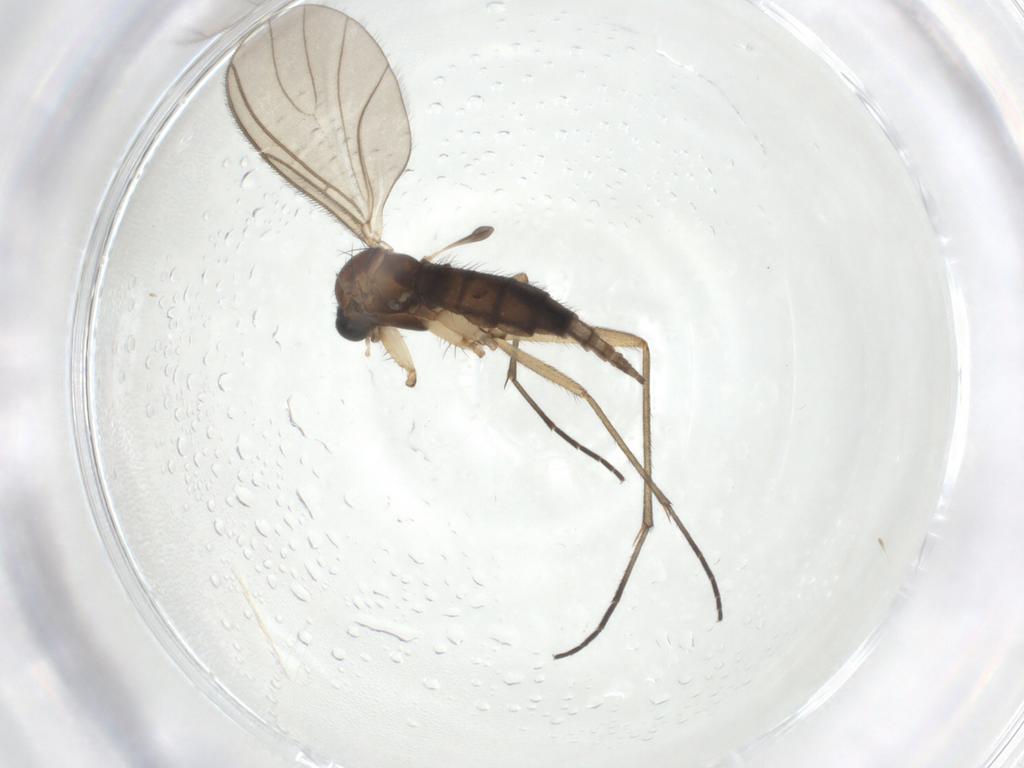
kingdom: Animalia
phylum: Arthropoda
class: Insecta
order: Diptera
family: Sciaridae
